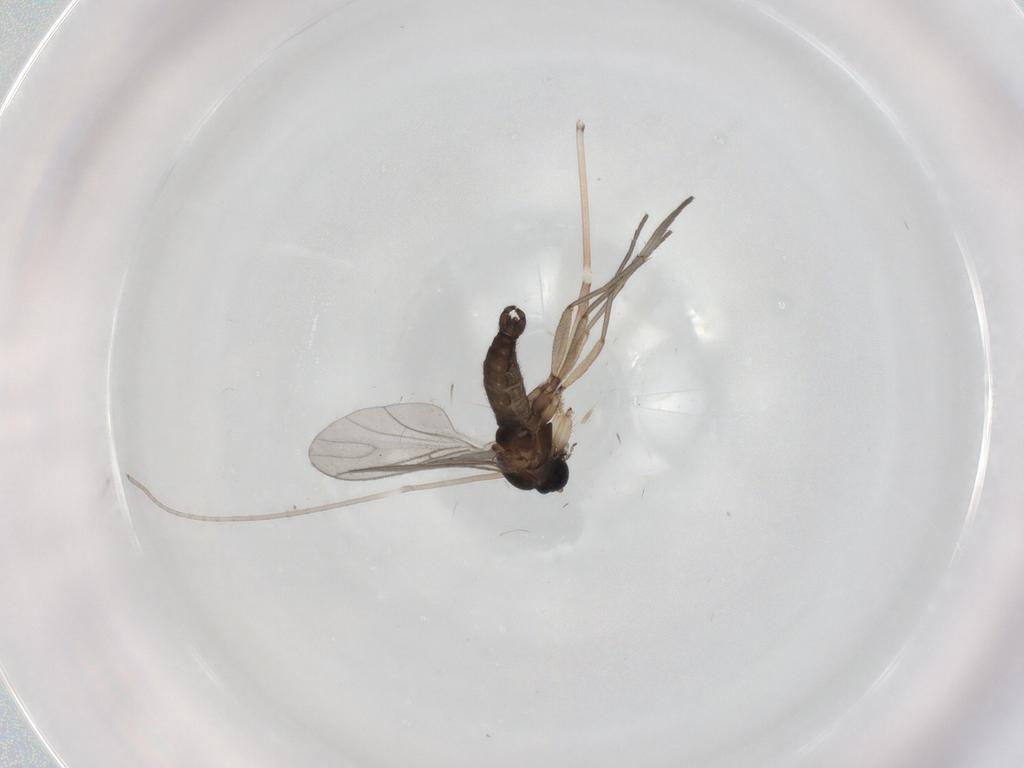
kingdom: Animalia
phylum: Arthropoda
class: Insecta
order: Diptera
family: Sciaridae
